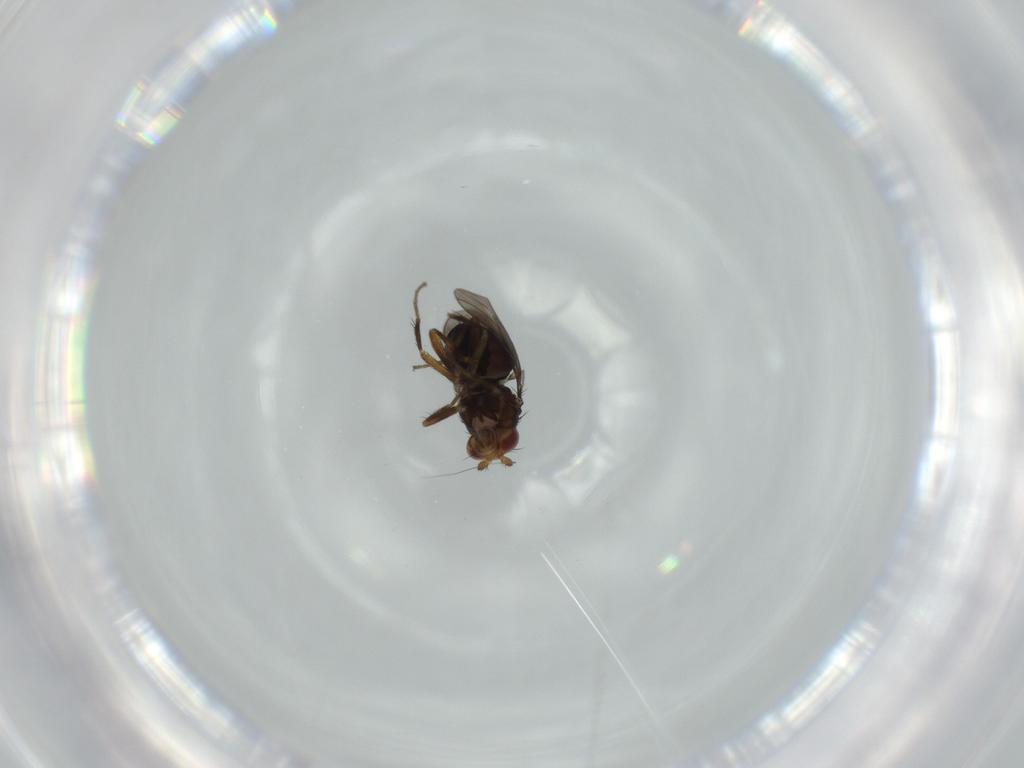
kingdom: Animalia
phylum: Arthropoda
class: Insecta
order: Diptera
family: Sphaeroceridae
